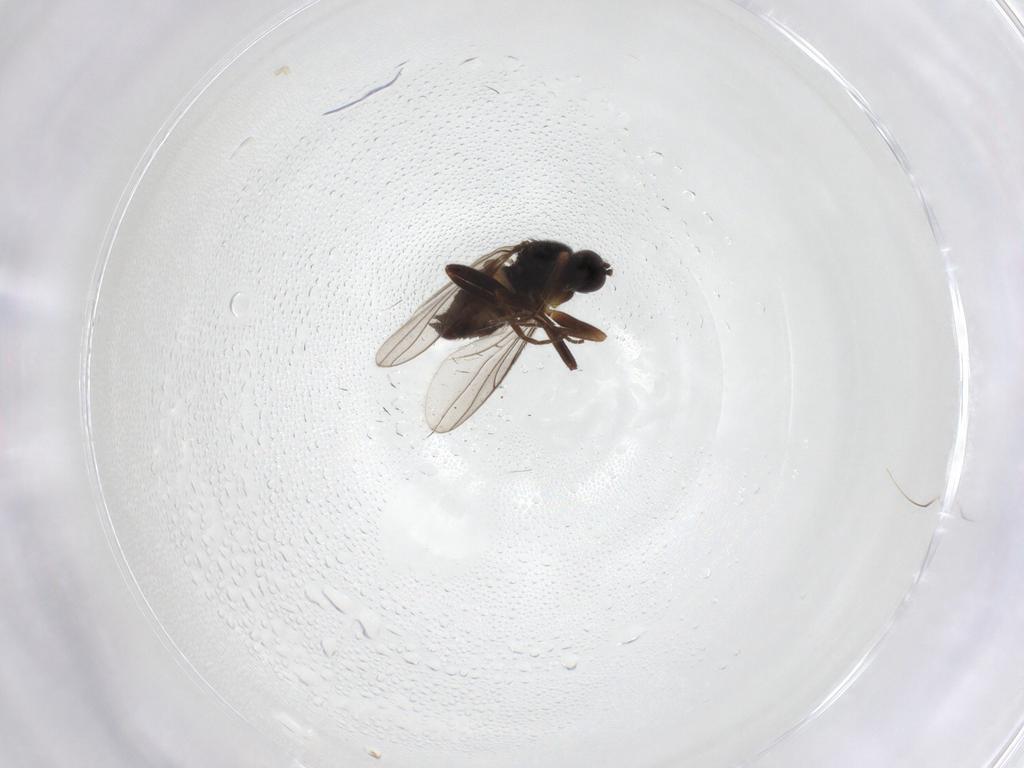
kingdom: Animalia
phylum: Arthropoda
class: Insecta
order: Diptera
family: Hybotidae
